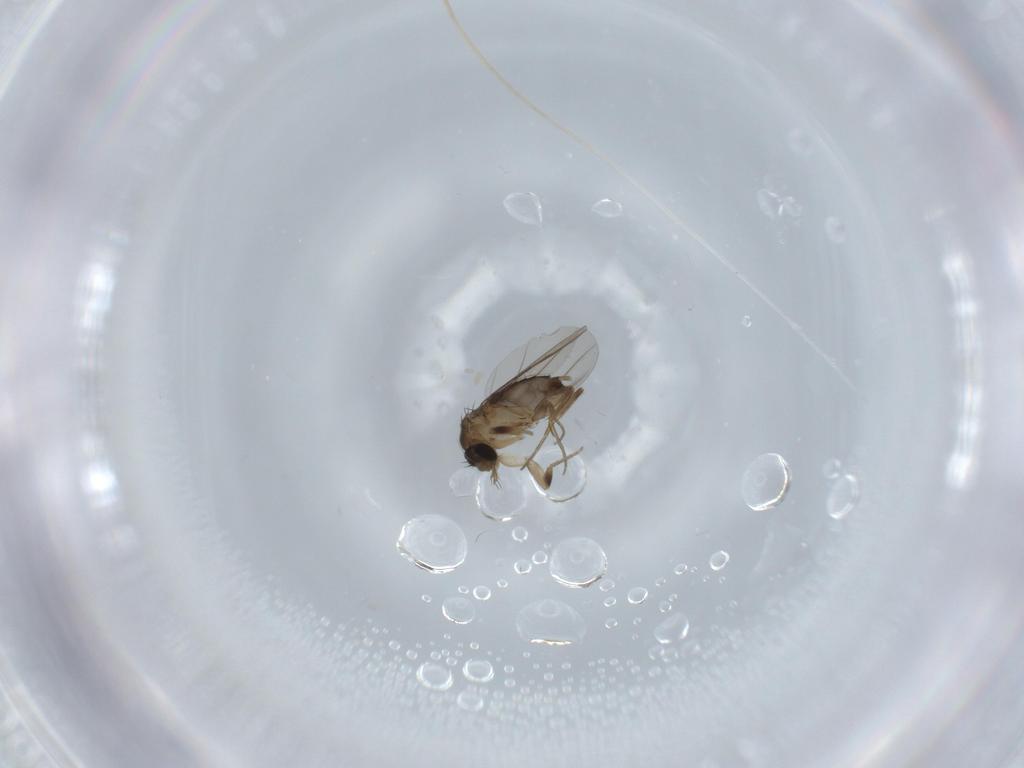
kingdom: Animalia
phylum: Arthropoda
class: Insecta
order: Diptera
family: Phoridae
